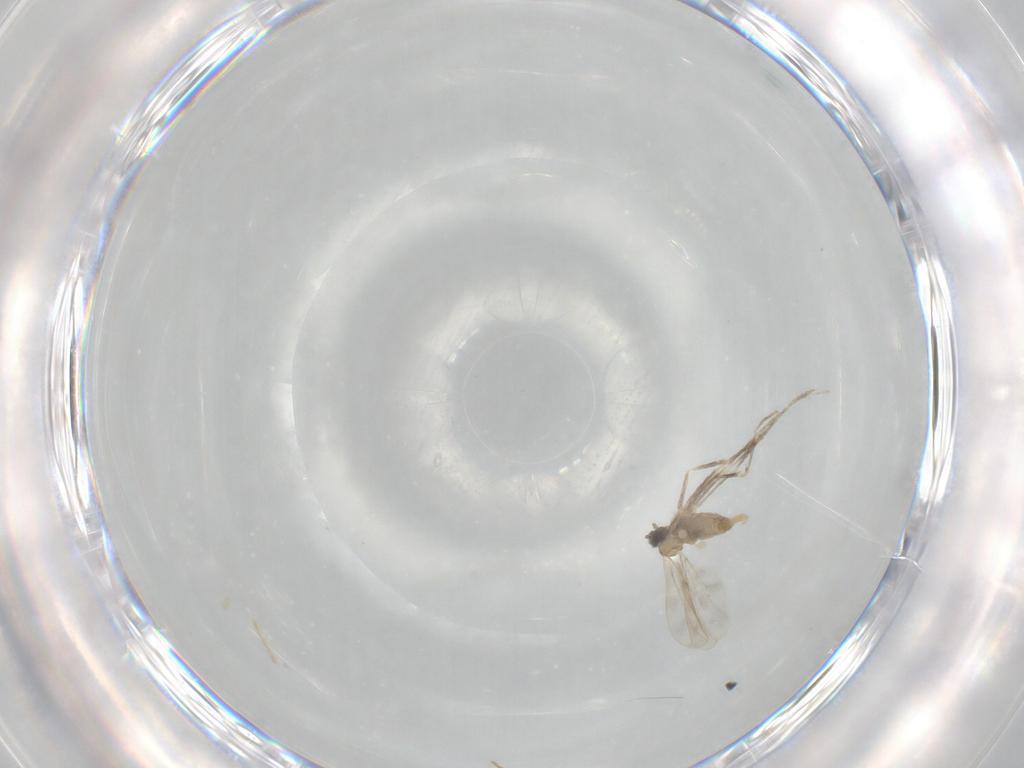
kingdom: Animalia
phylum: Arthropoda
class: Insecta
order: Diptera
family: Cecidomyiidae
